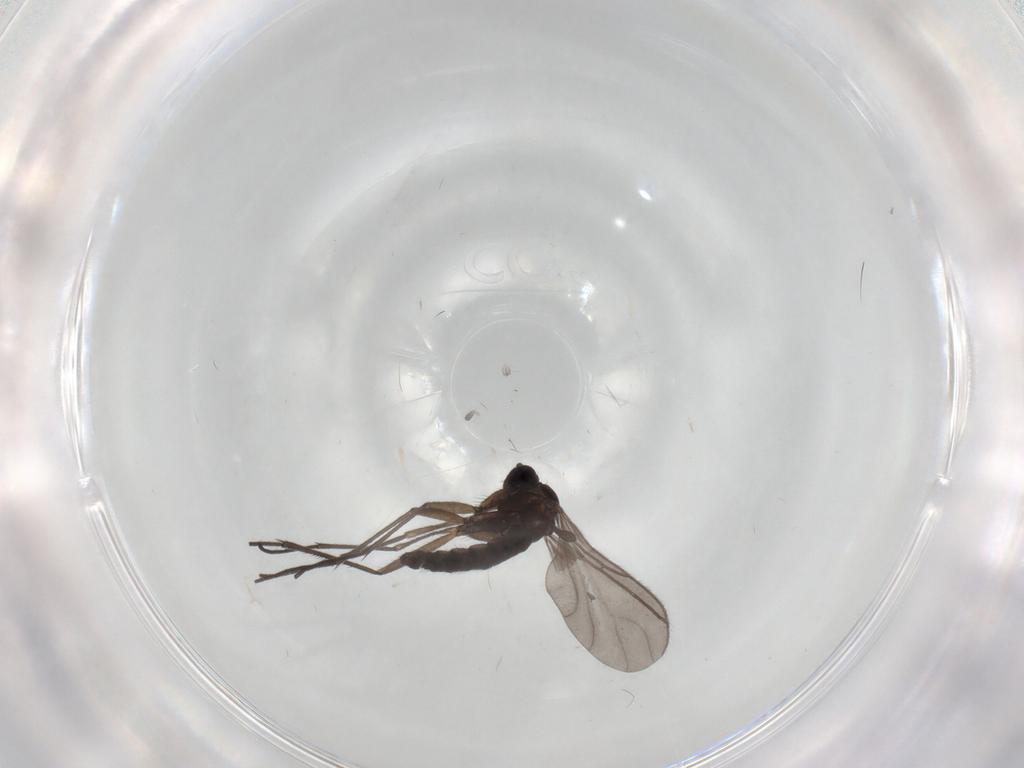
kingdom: Animalia
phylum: Arthropoda
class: Insecta
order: Diptera
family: Sciaridae
